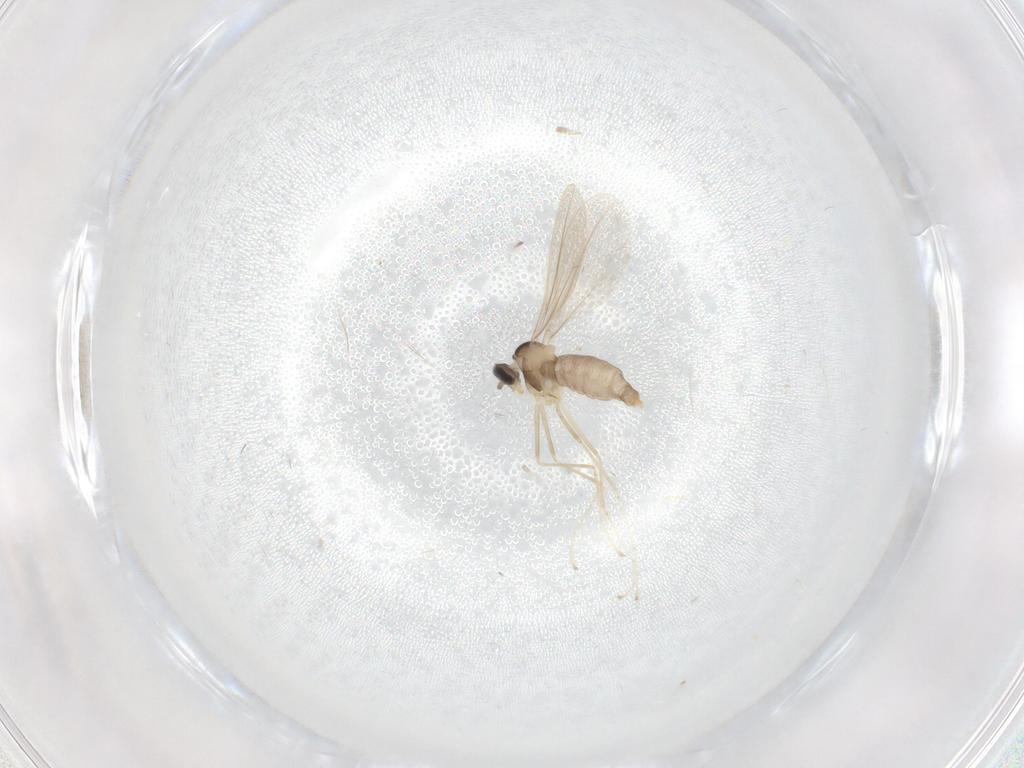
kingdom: Animalia
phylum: Arthropoda
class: Insecta
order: Diptera
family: Cecidomyiidae
